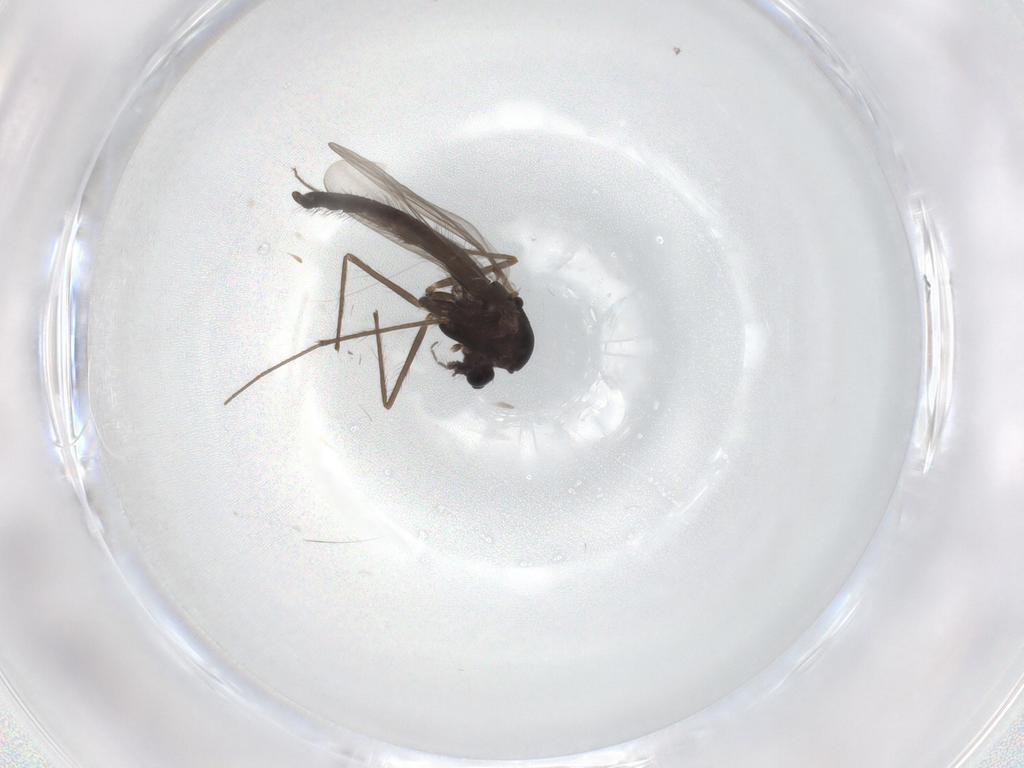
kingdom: Animalia
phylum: Arthropoda
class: Insecta
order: Diptera
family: Chironomidae
